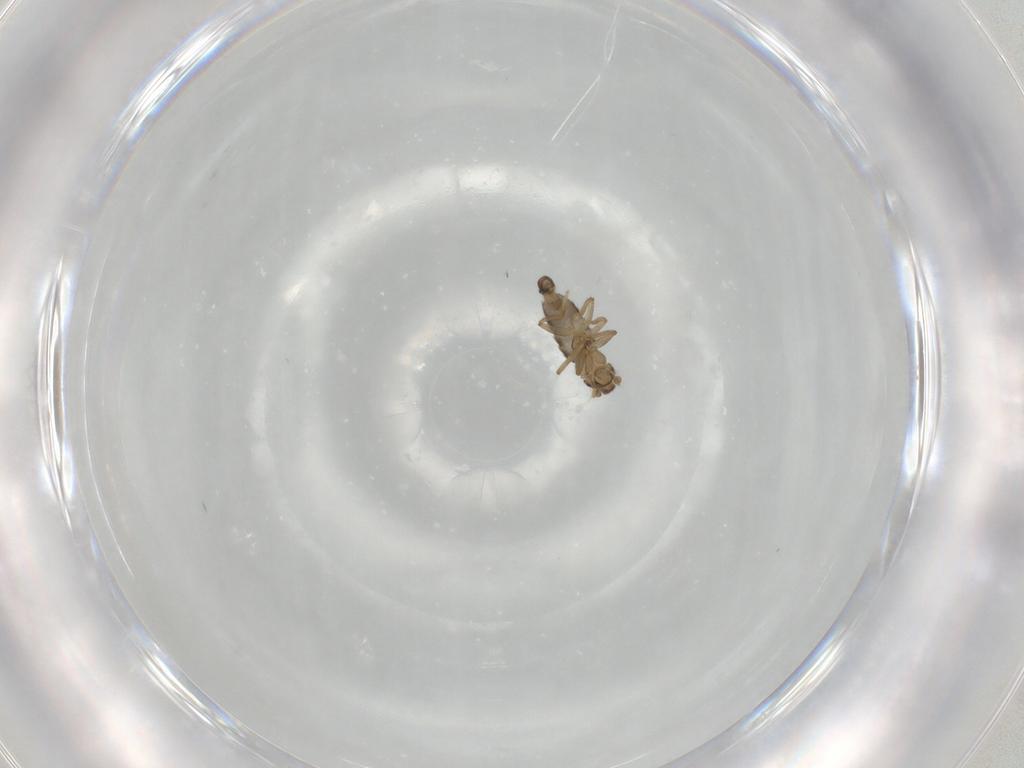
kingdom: Animalia
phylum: Arthropoda
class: Insecta
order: Diptera
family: Phoridae
